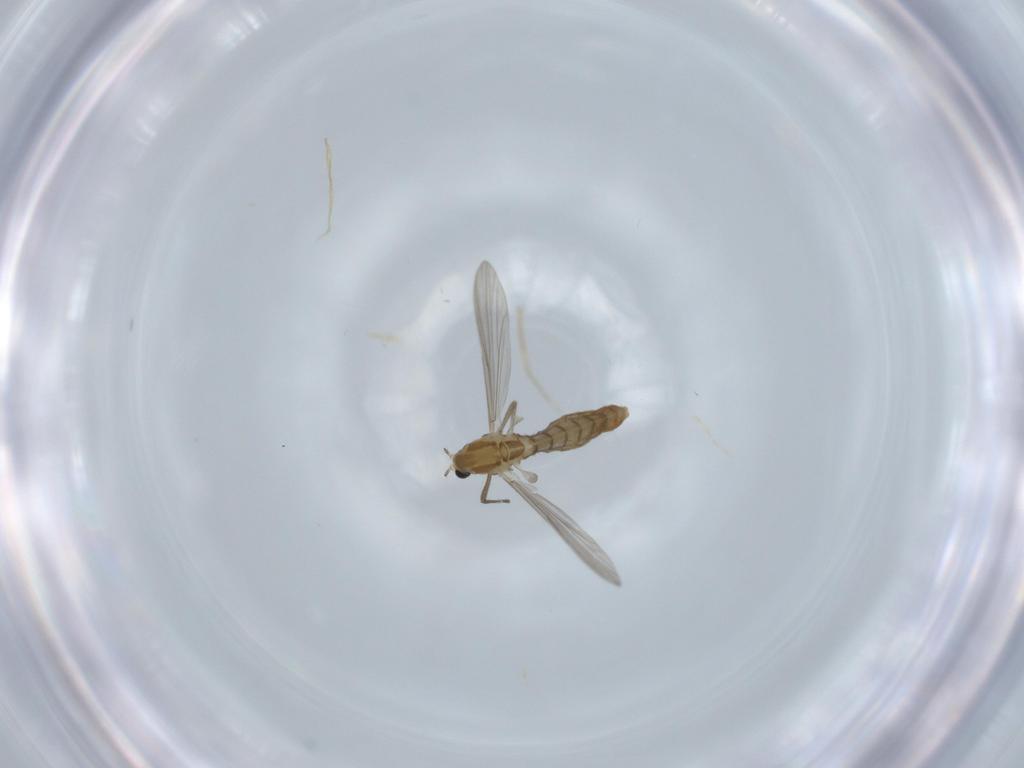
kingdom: Animalia
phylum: Arthropoda
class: Insecta
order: Diptera
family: Chironomidae
